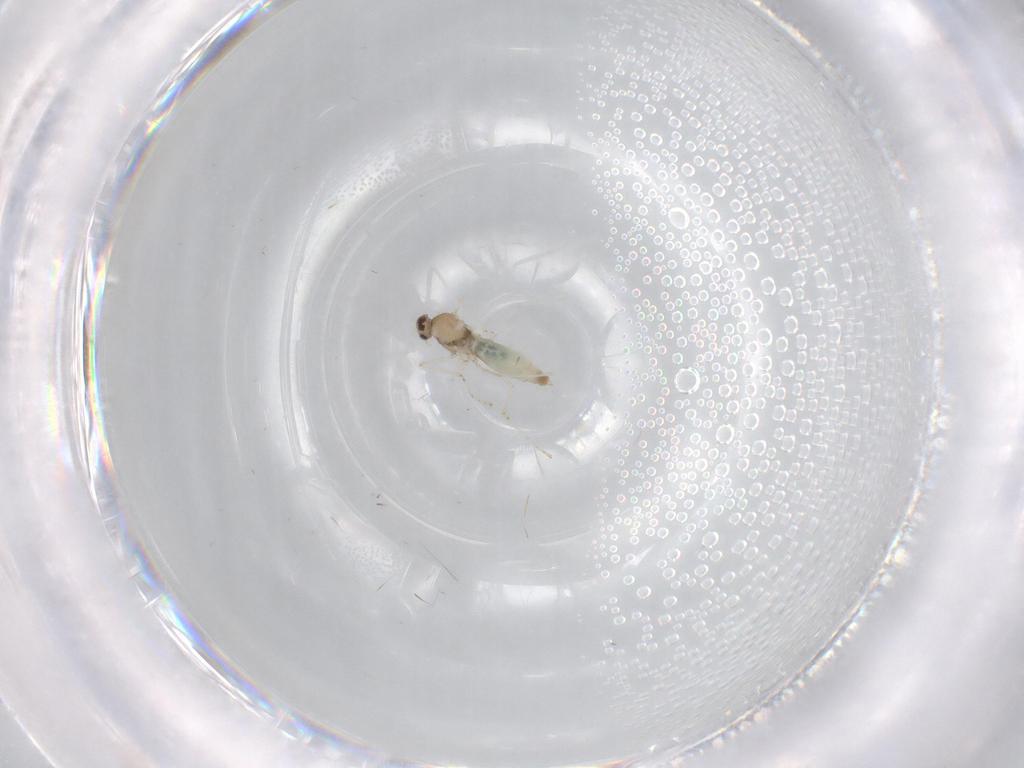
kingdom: Animalia
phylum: Arthropoda
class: Insecta
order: Diptera
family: Cecidomyiidae
